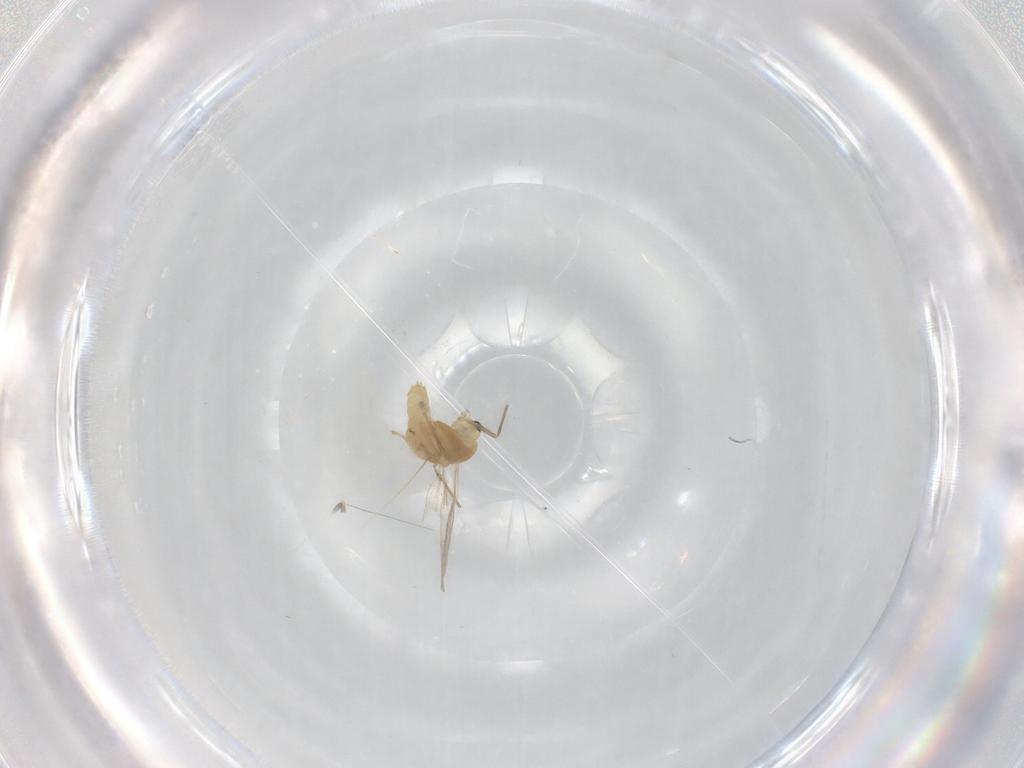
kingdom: Animalia
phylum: Arthropoda
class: Insecta
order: Diptera
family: Chironomidae
